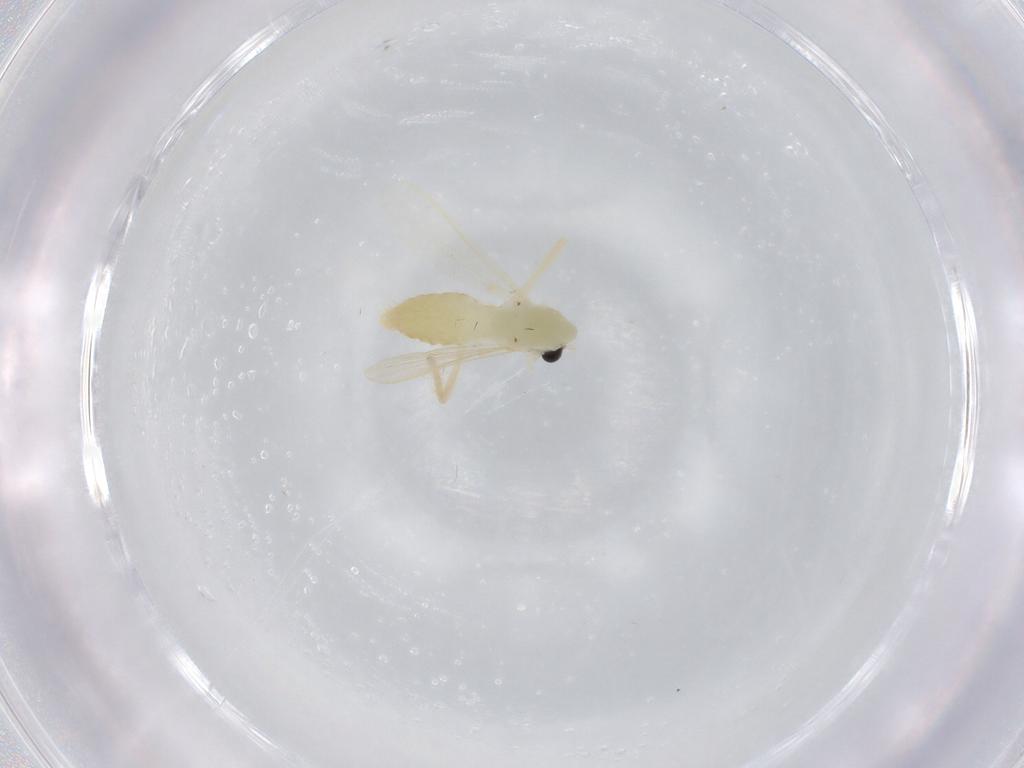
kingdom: Animalia
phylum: Arthropoda
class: Insecta
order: Diptera
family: Chironomidae
